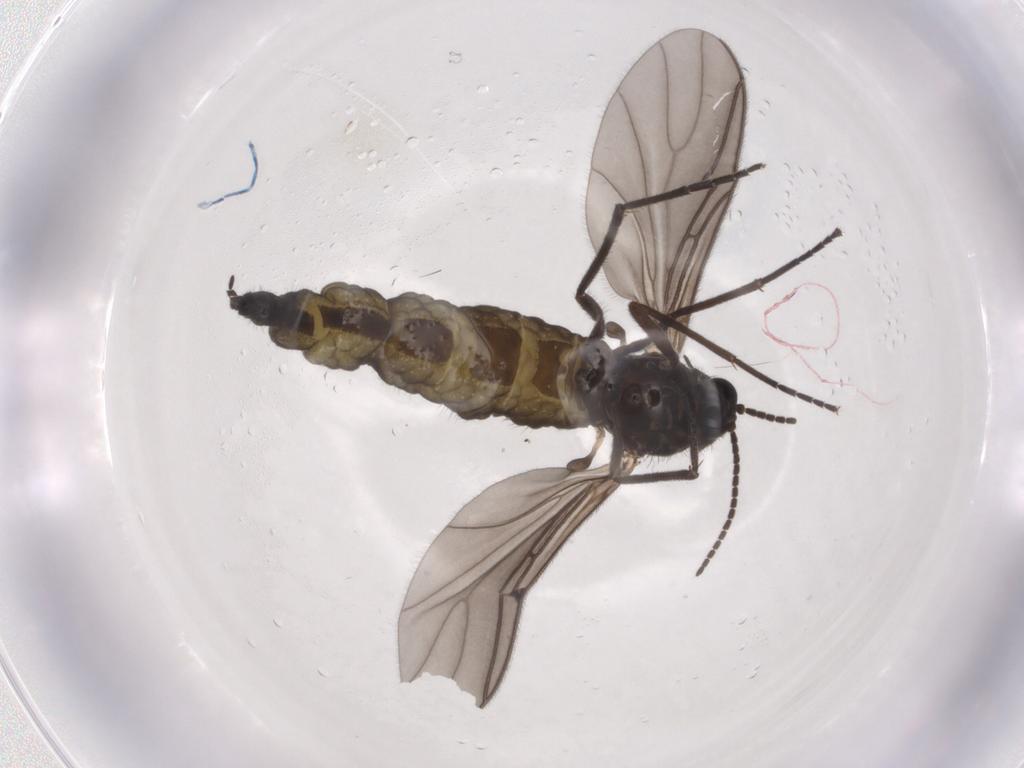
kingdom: Animalia
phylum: Arthropoda
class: Insecta
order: Diptera
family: Sciaridae
